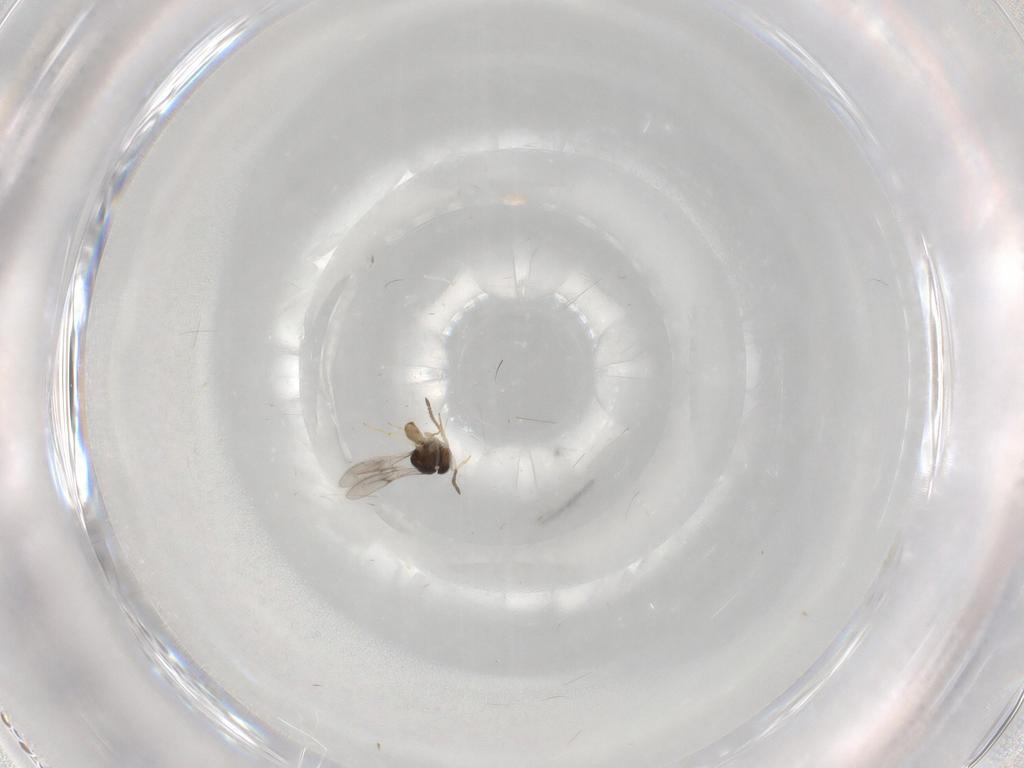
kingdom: Animalia
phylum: Arthropoda
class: Insecta
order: Hymenoptera
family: Scelionidae
